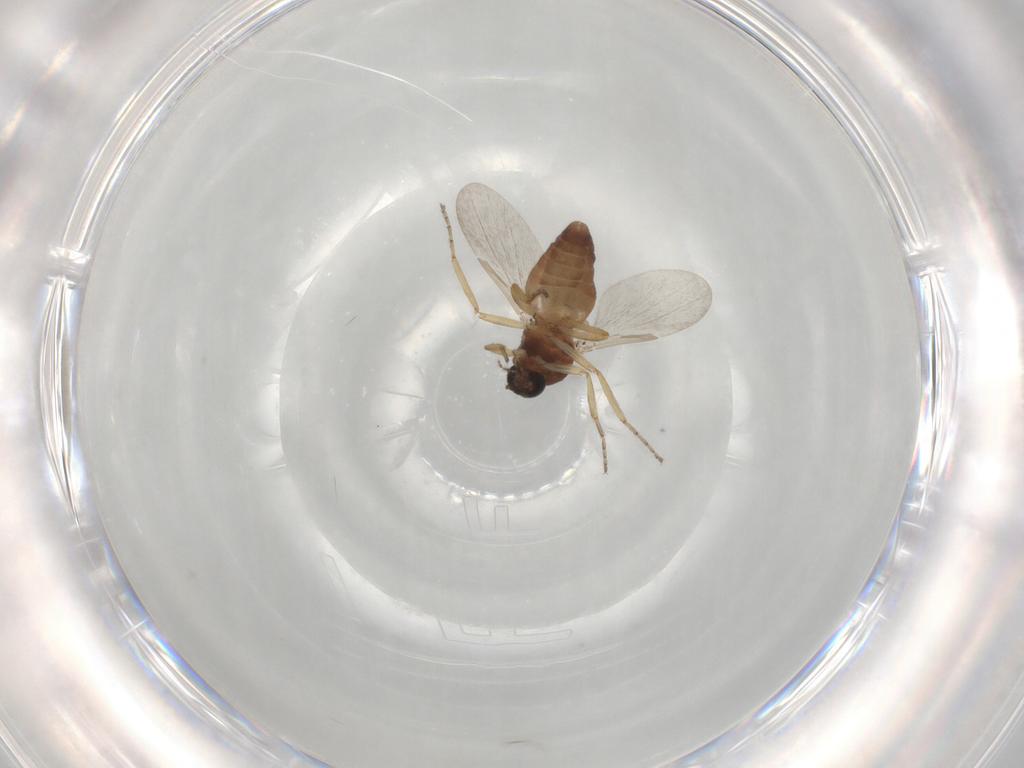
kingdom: Animalia
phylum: Arthropoda
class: Insecta
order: Diptera
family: Ceratopogonidae
